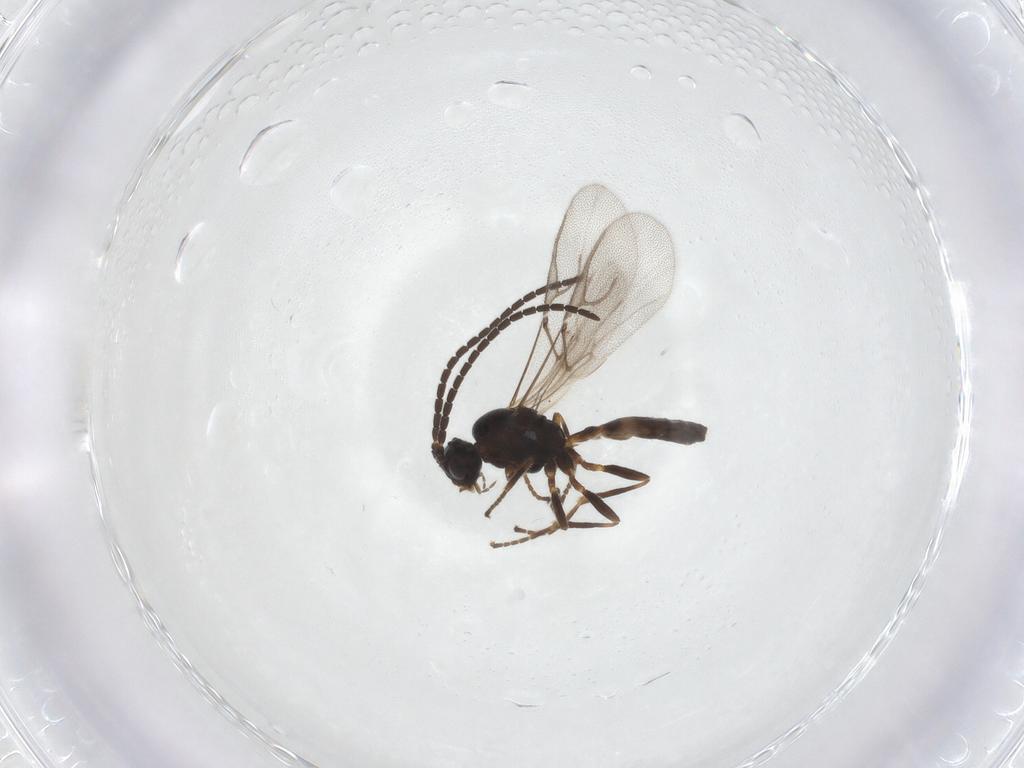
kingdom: Animalia
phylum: Arthropoda
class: Insecta
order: Hymenoptera
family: Braconidae
